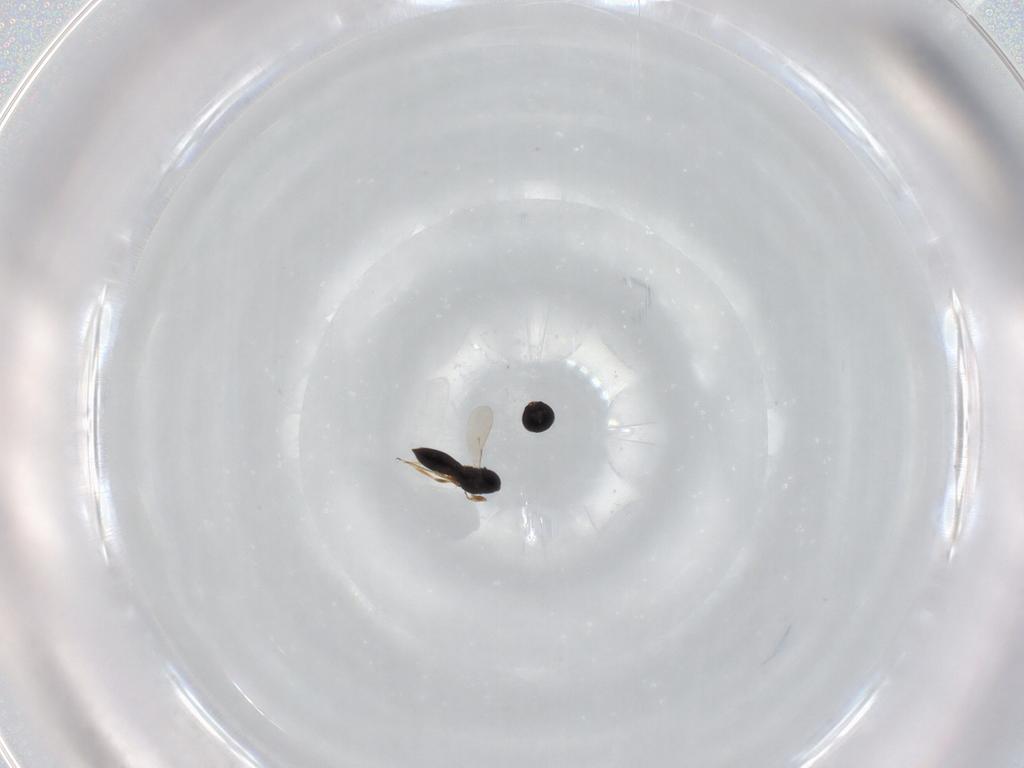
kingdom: Animalia
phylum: Arthropoda
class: Insecta
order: Hymenoptera
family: Scelionidae
